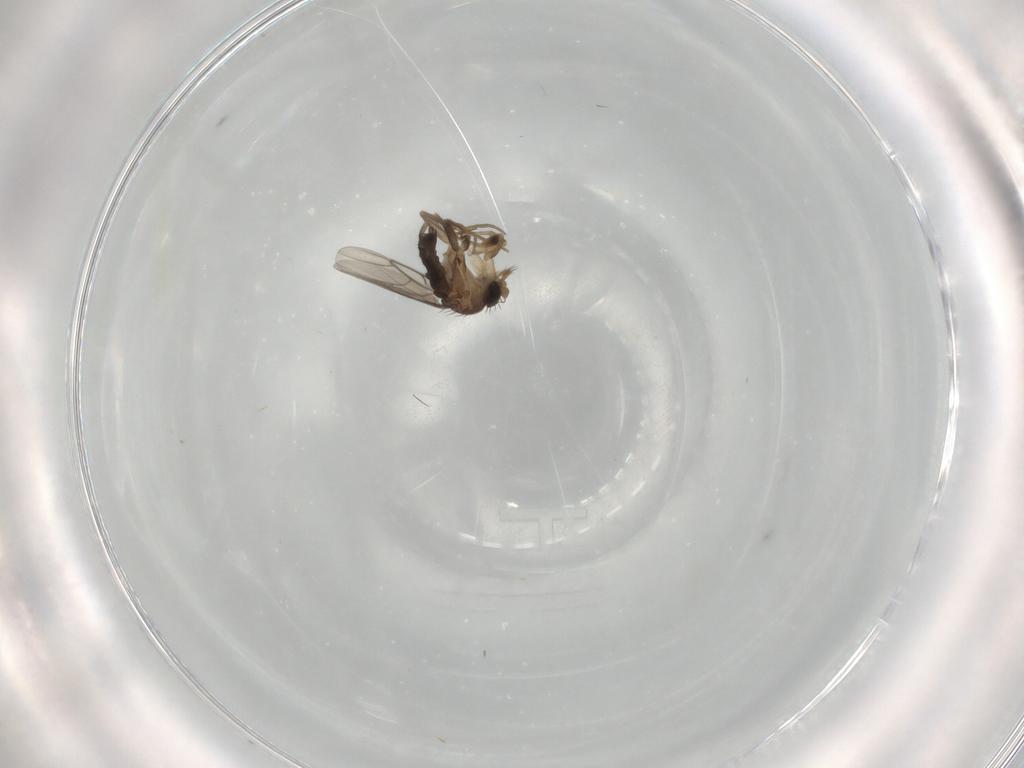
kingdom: Animalia
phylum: Arthropoda
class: Insecta
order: Diptera
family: Phoridae
